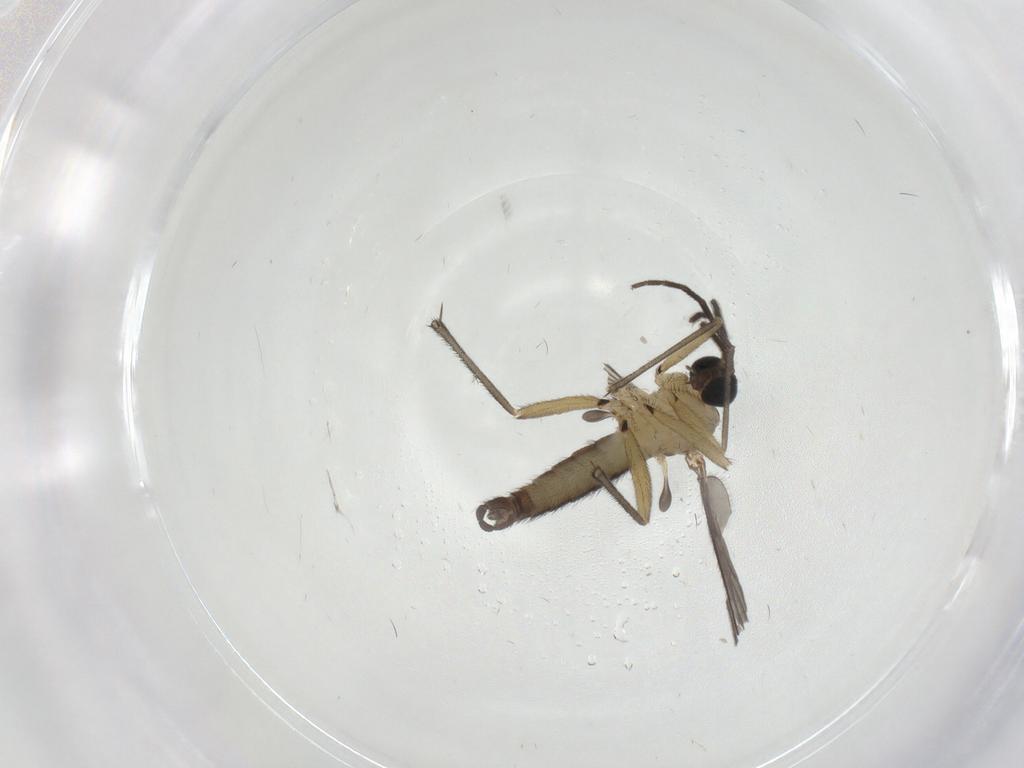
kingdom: Animalia
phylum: Arthropoda
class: Insecta
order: Diptera
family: Sciaridae
